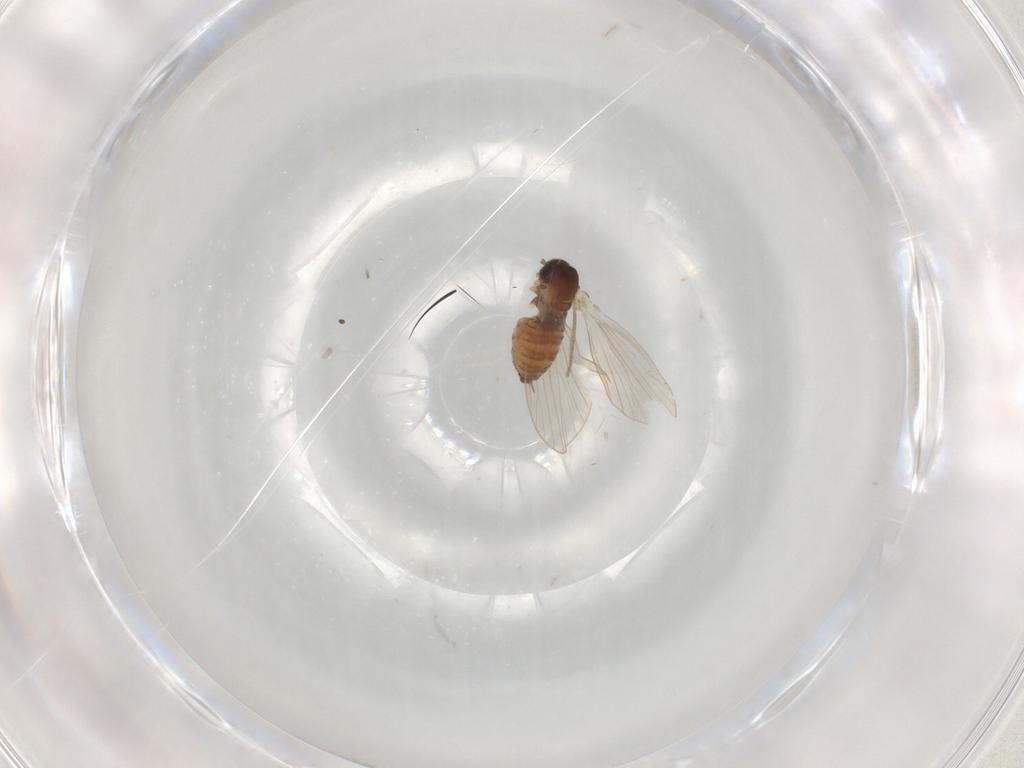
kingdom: Animalia
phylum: Arthropoda
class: Insecta
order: Diptera
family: Psychodidae
